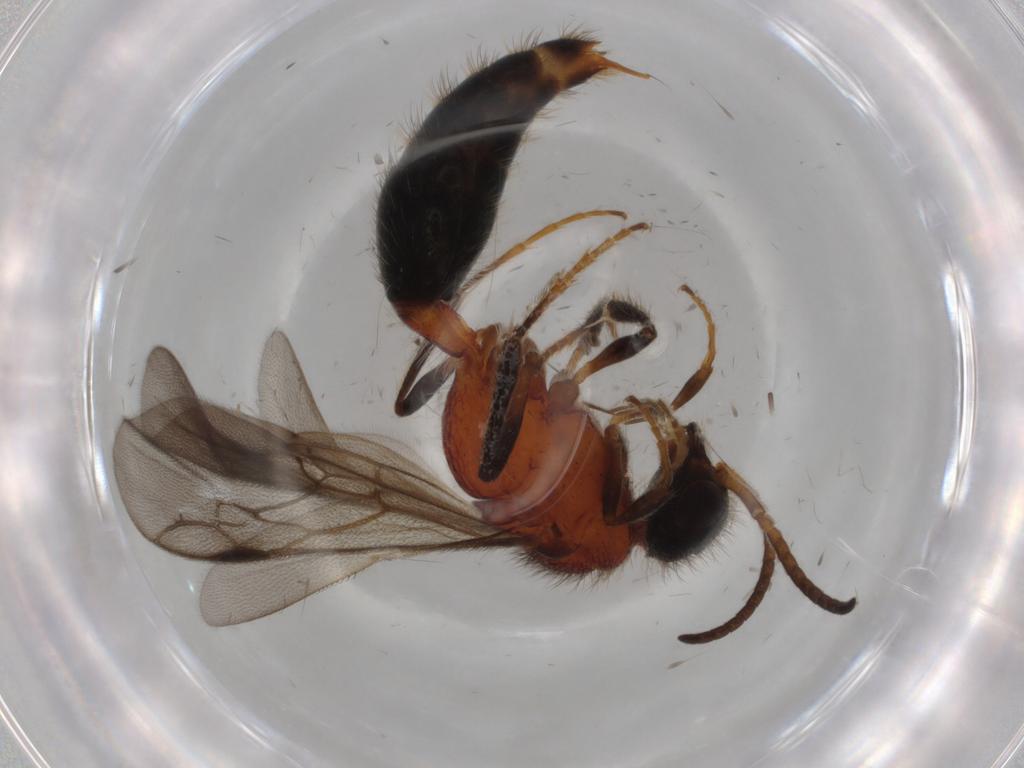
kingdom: Animalia
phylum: Arthropoda
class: Insecta
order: Hymenoptera
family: Mutillidae
